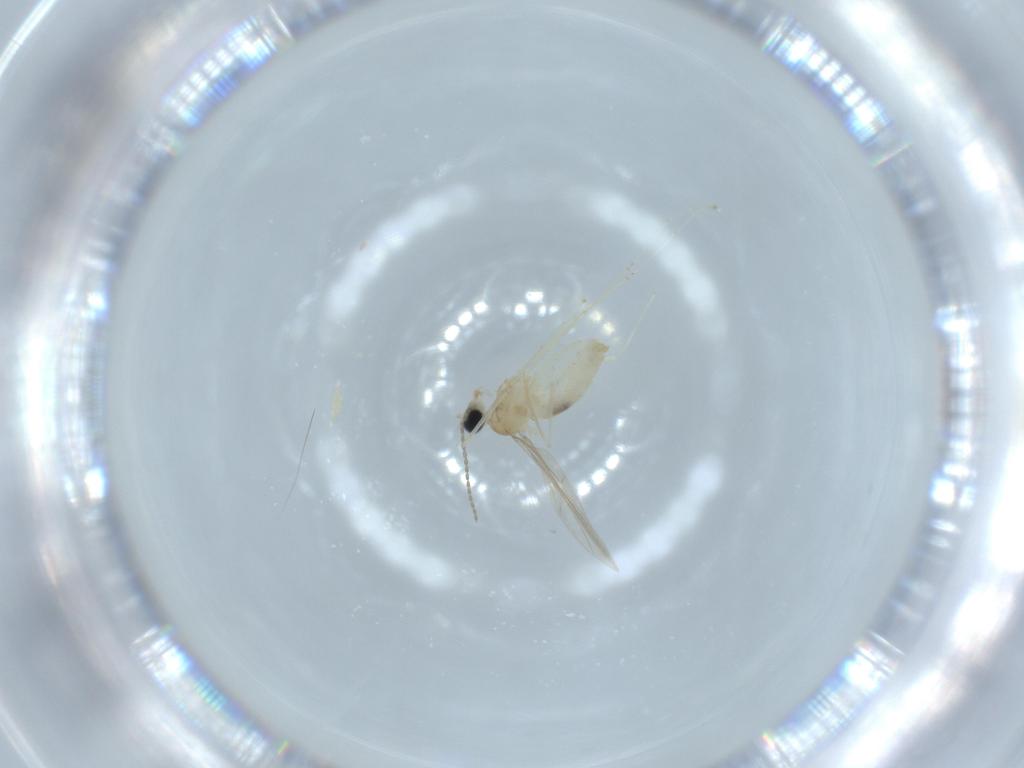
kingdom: Animalia
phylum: Arthropoda
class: Insecta
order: Diptera
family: Cecidomyiidae
